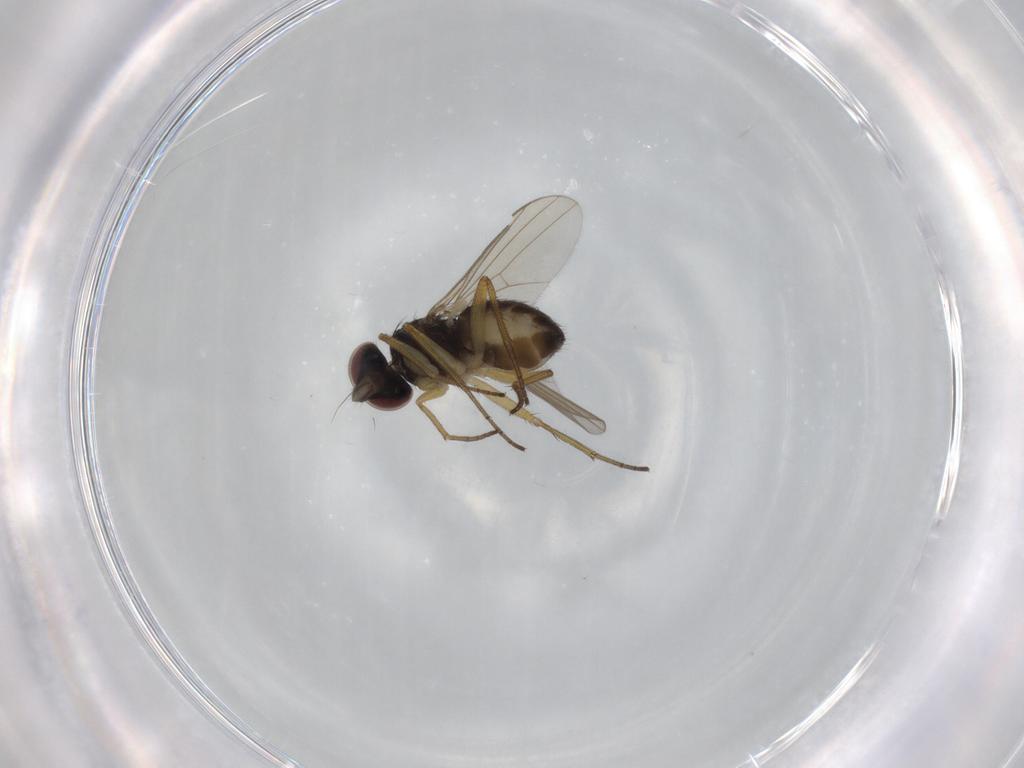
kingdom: Animalia
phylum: Arthropoda
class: Insecta
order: Diptera
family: Dolichopodidae
